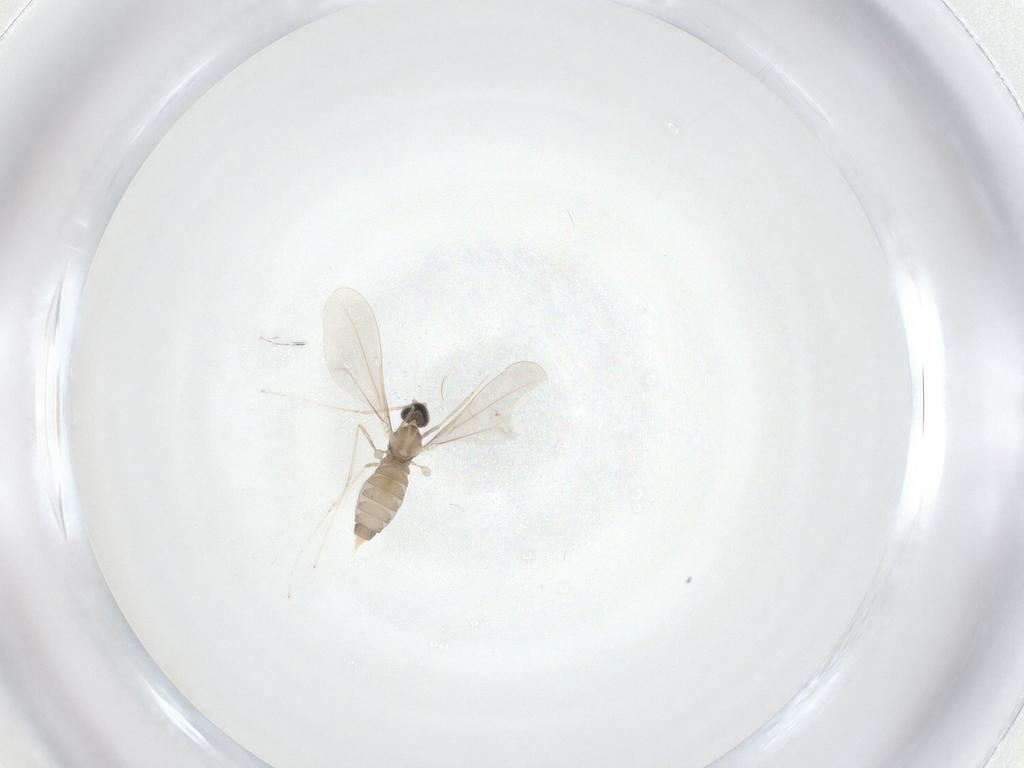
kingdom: Animalia
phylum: Arthropoda
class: Insecta
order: Diptera
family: Cecidomyiidae
